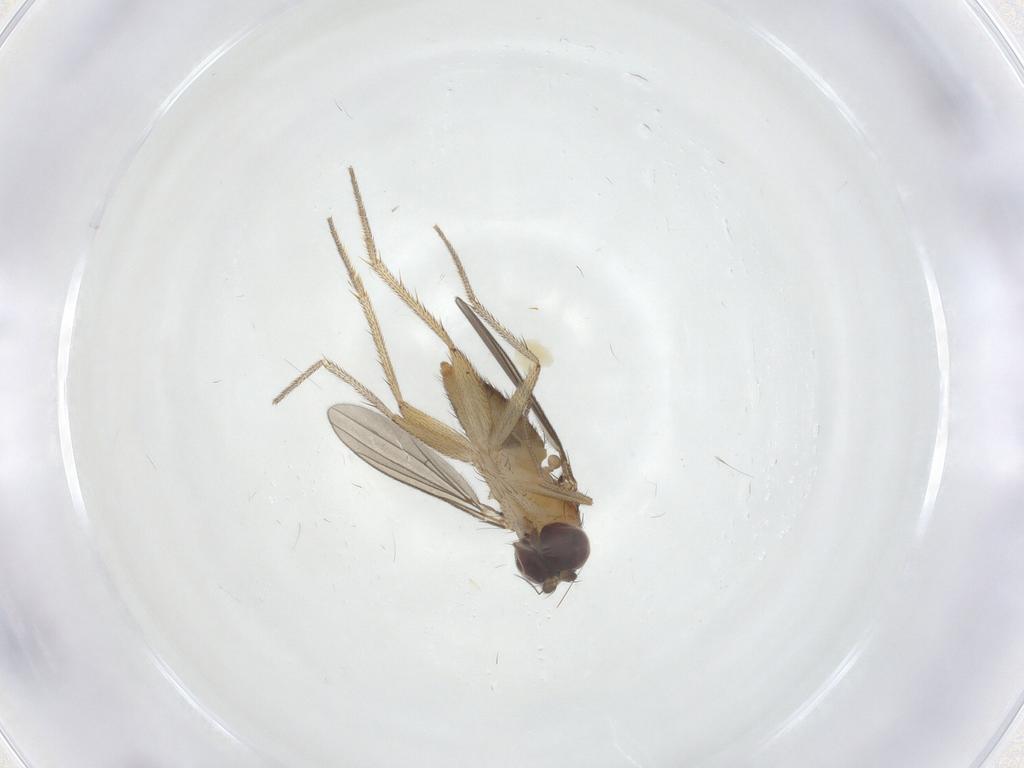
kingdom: Animalia
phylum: Arthropoda
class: Insecta
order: Diptera
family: Dolichopodidae
